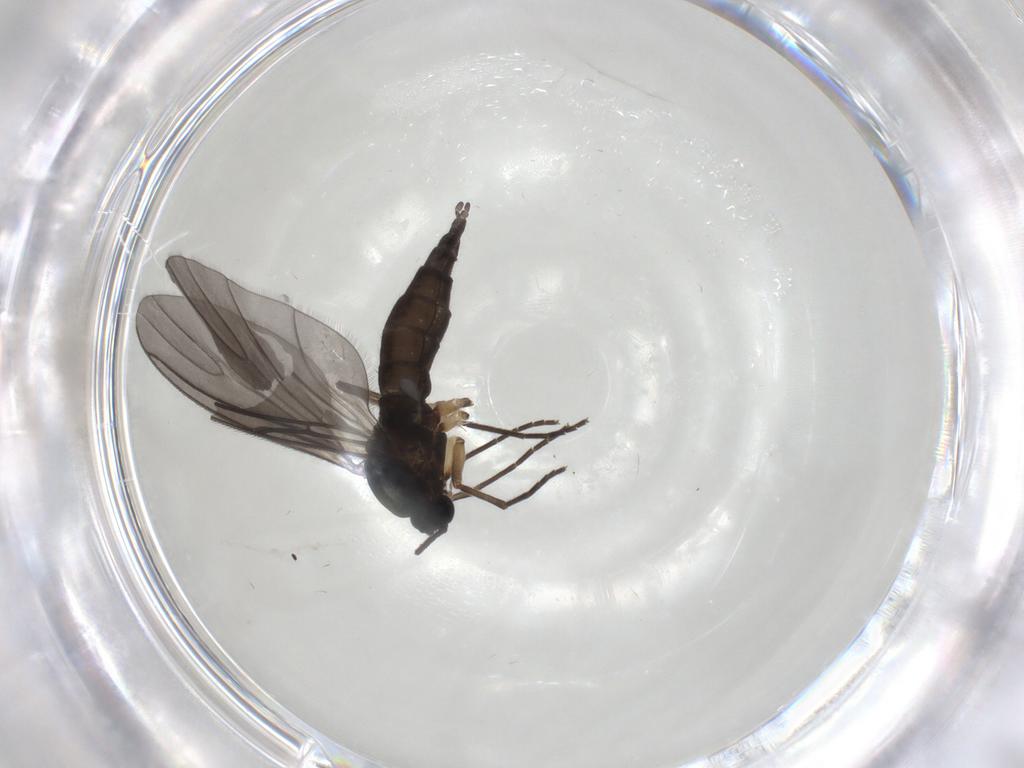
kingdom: Animalia
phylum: Arthropoda
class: Insecta
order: Diptera
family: Sciaridae
